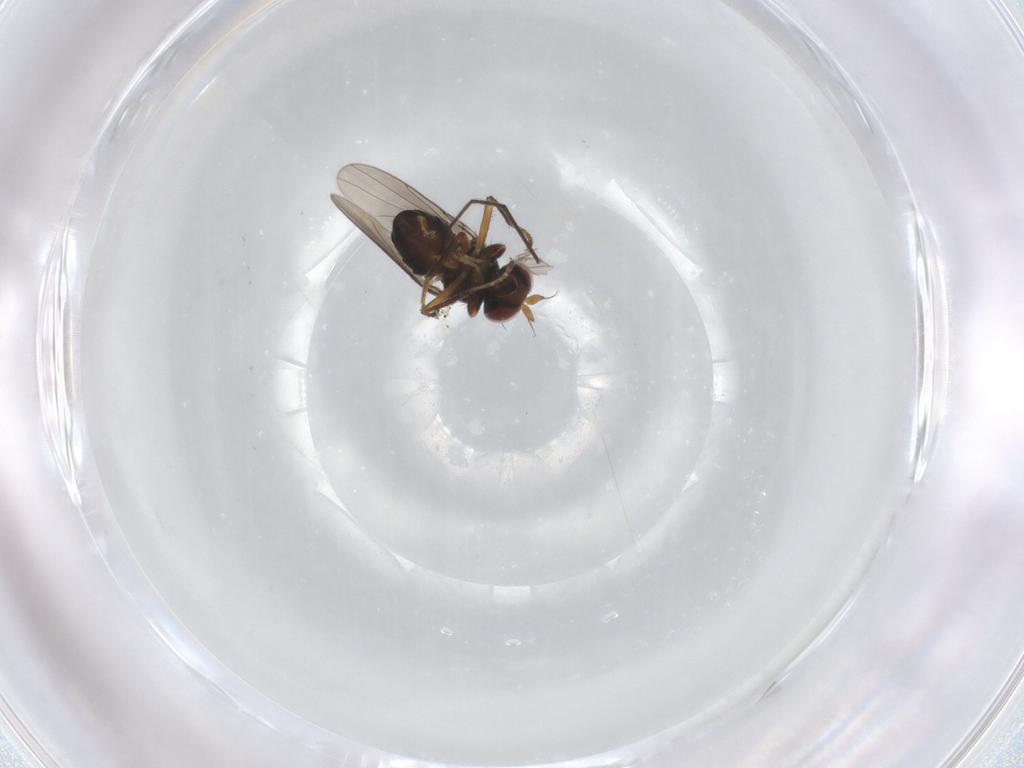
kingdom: Animalia
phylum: Arthropoda
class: Insecta
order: Diptera
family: Ephydridae
